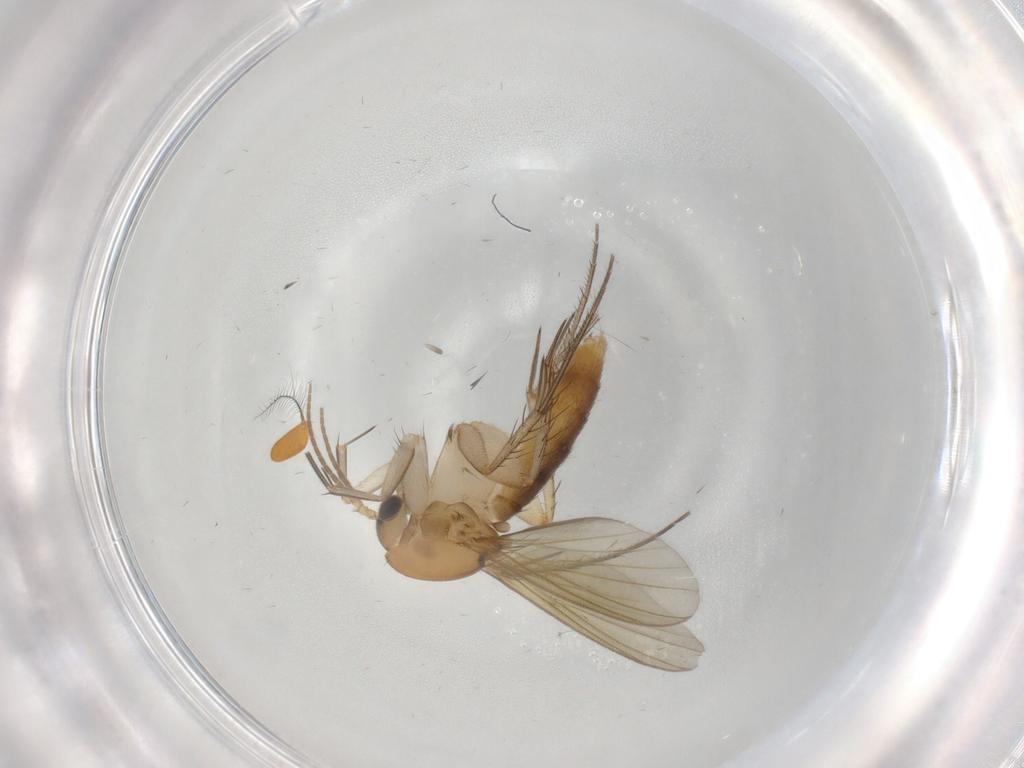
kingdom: Animalia
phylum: Arthropoda
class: Insecta
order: Diptera
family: Mycetophilidae
